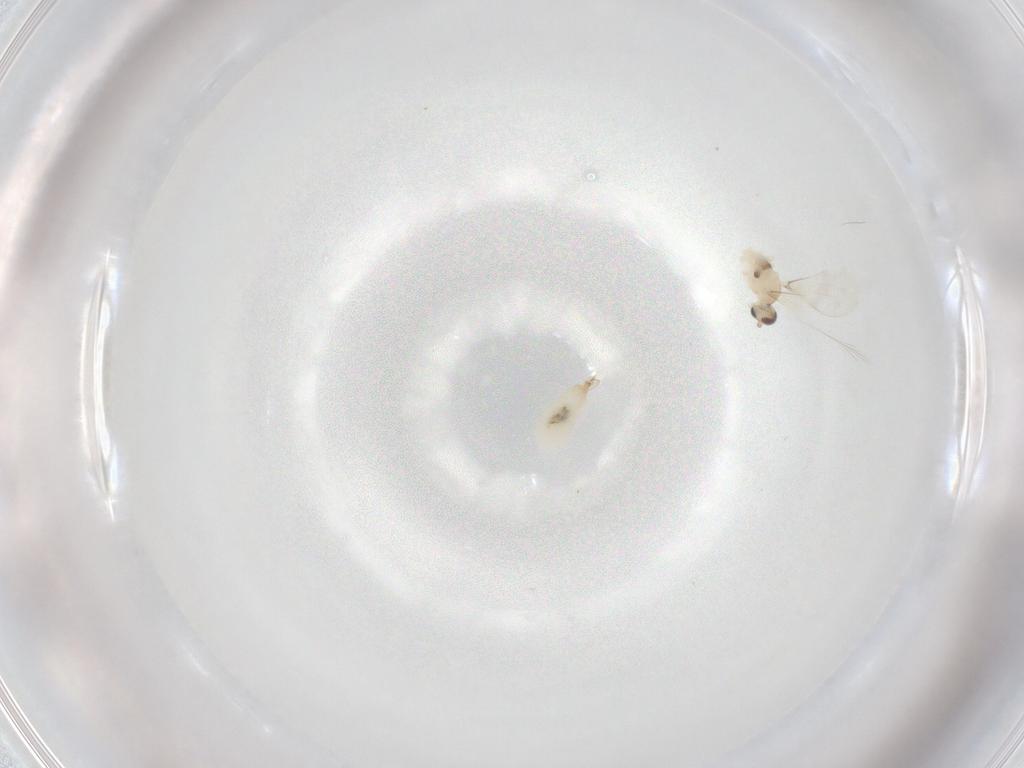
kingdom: Animalia
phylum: Arthropoda
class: Insecta
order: Diptera
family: Cecidomyiidae
